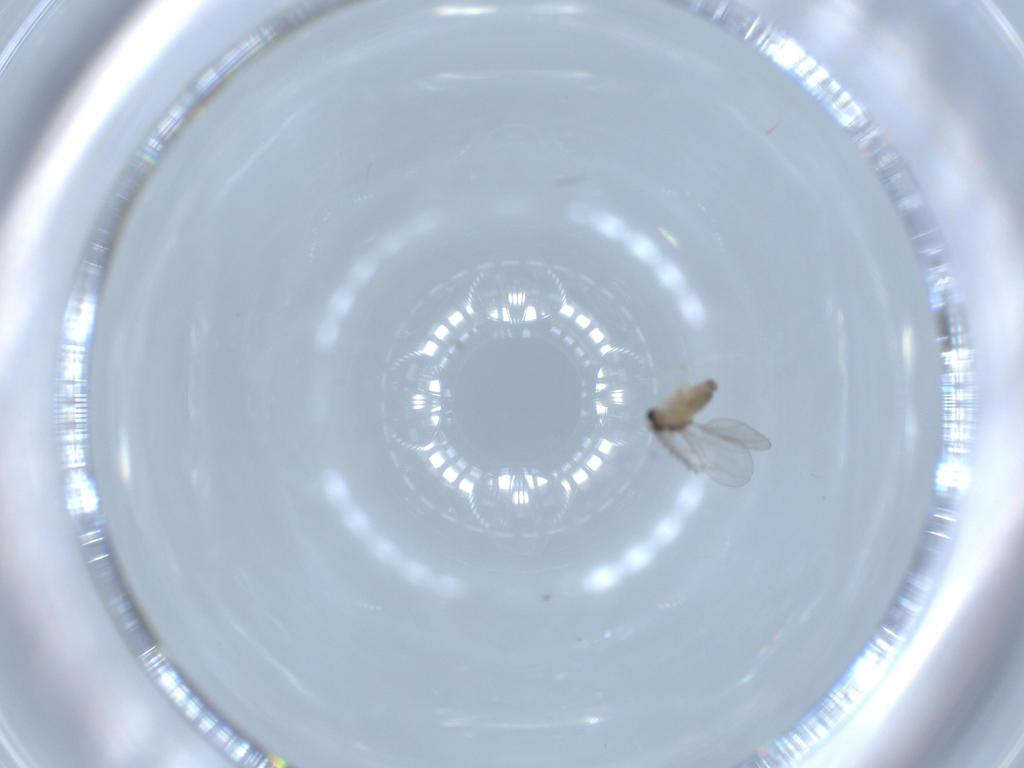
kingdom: Animalia
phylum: Arthropoda
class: Insecta
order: Diptera
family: Cecidomyiidae
